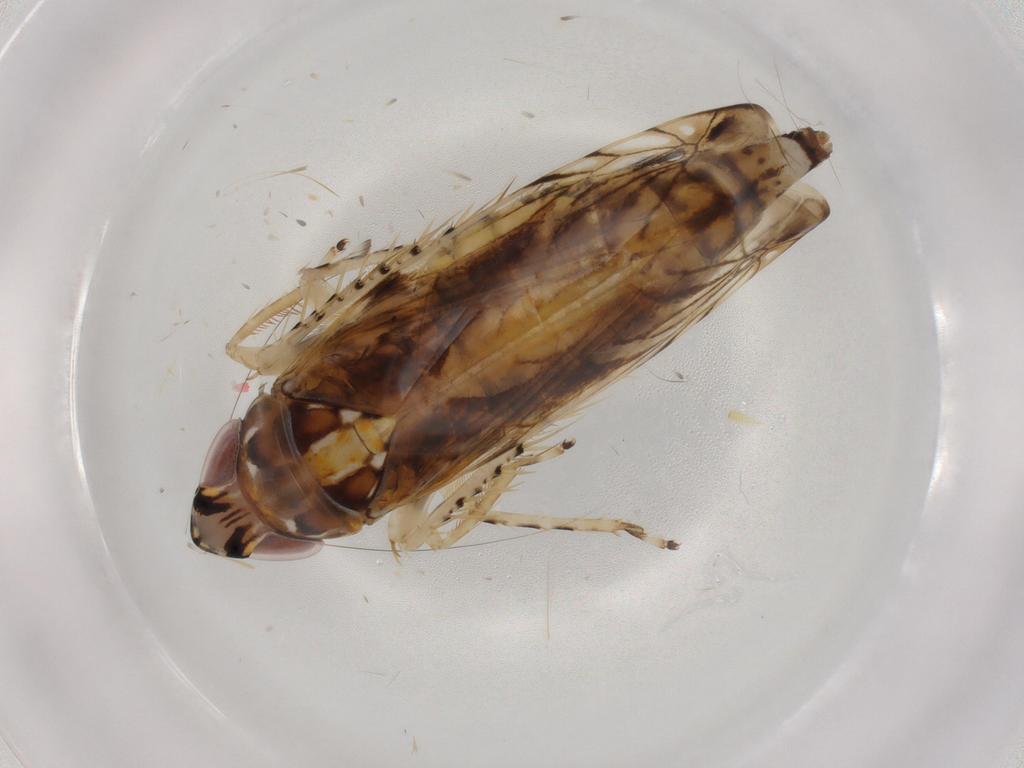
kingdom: Animalia
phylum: Arthropoda
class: Insecta
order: Hemiptera
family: Cicadellidae
